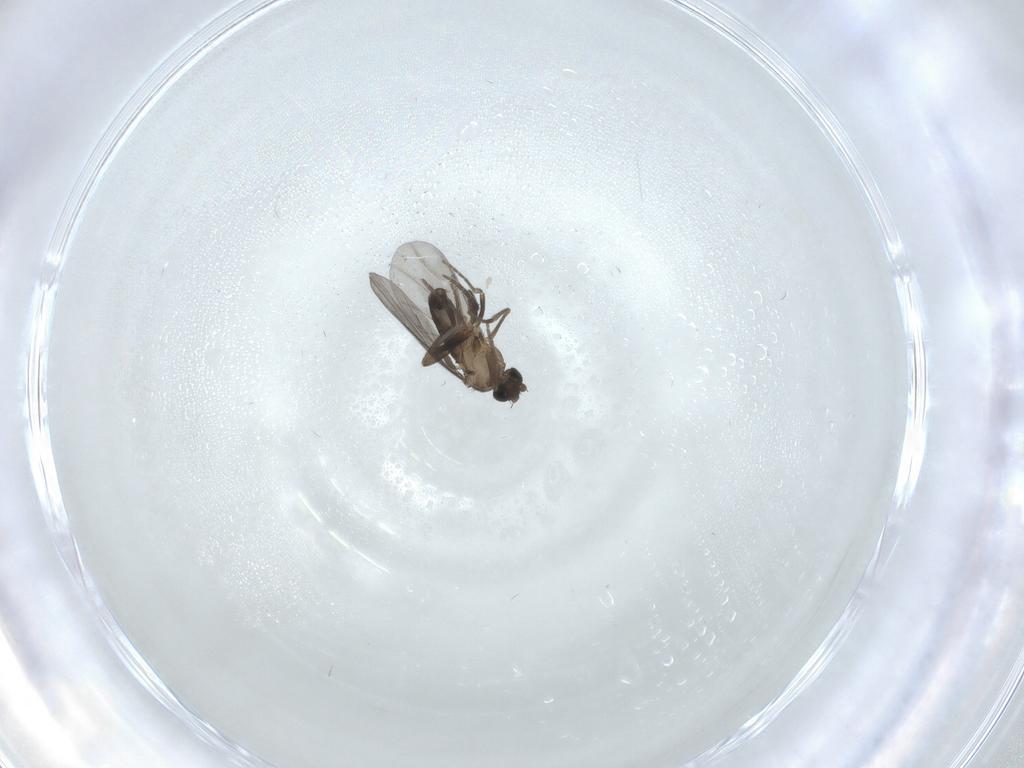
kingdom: Animalia
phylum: Arthropoda
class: Insecta
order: Diptera
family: Phoridae
